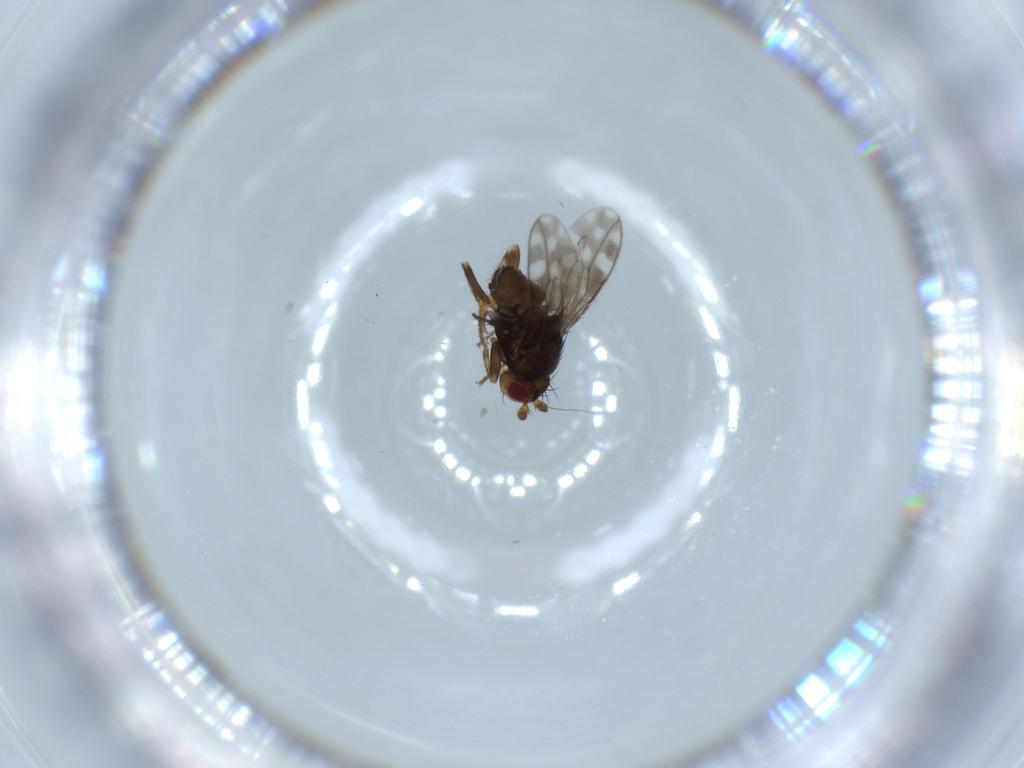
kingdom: Animalia
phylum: Arthropoda
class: Insecta
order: Diptera
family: Sphaeroceridae
